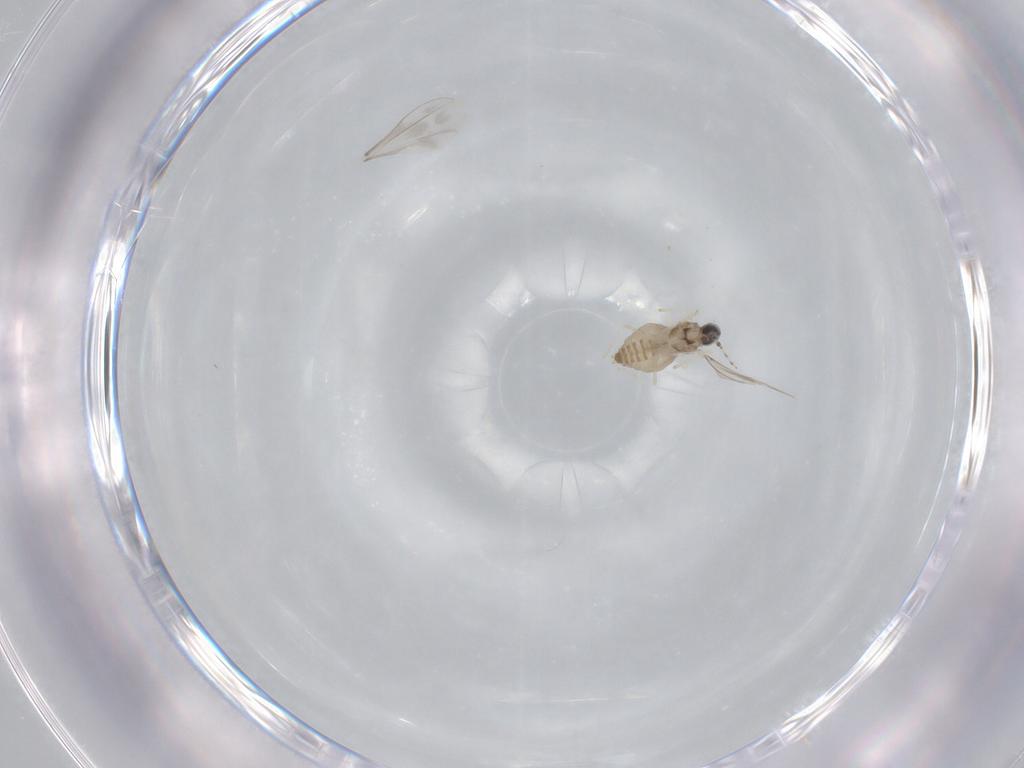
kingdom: Animalia
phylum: Arthropoda
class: Insecta
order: Diptera
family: Cecidomyiidae
